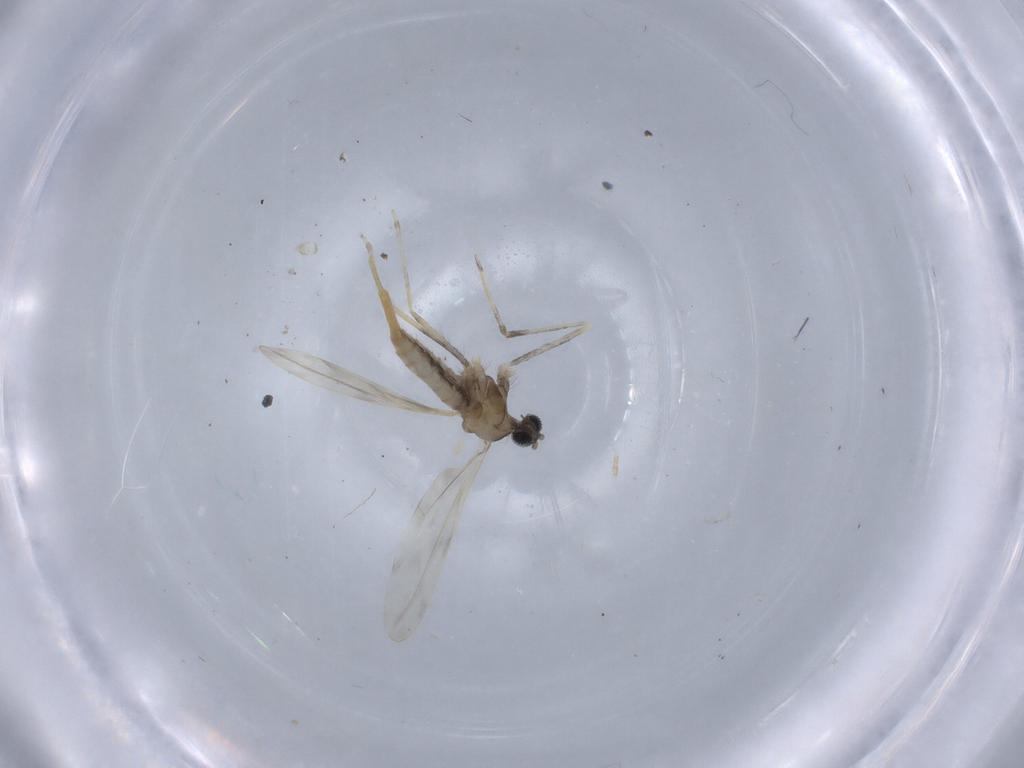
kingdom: Animalia
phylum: Arthropoda
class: Insecta
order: Diptera
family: Cecidomyiidae
